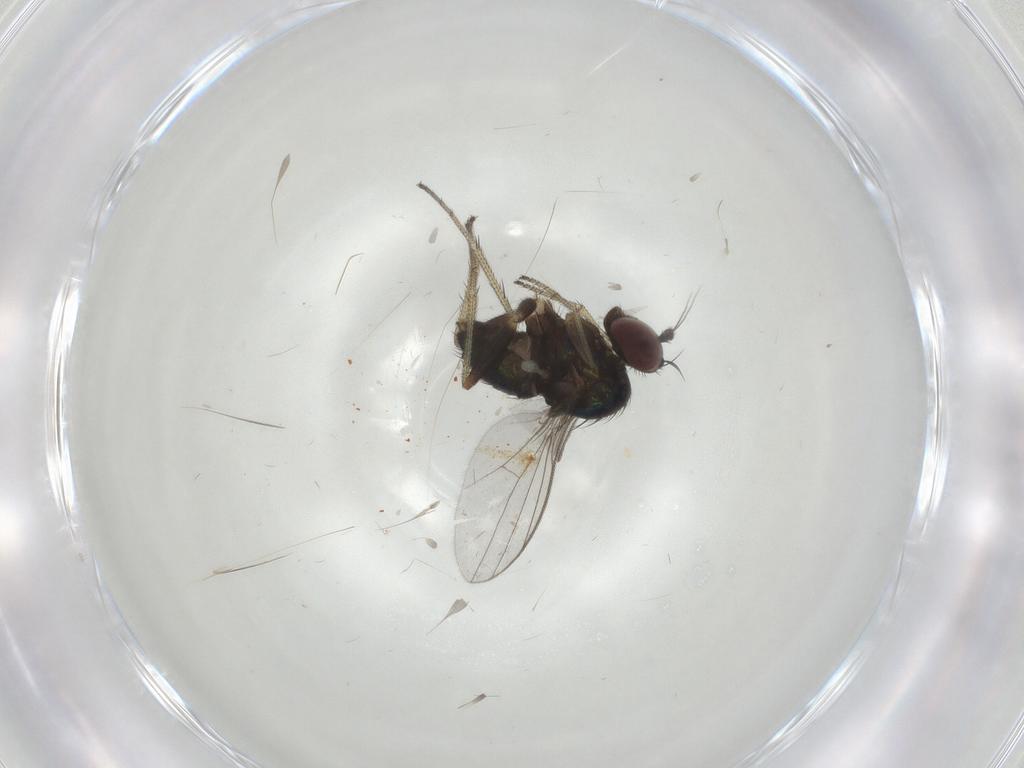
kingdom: Animalia
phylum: Arthropoda
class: Insecta
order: Diptera
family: Cecidomyiidae
